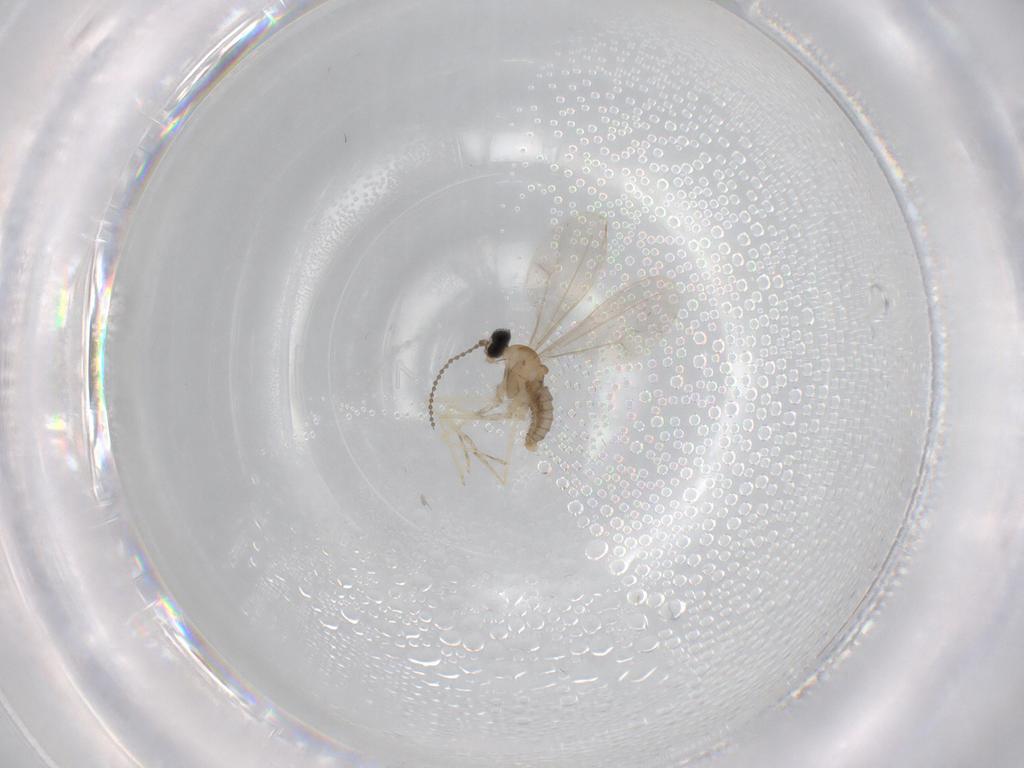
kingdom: Animalia
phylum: Arthropoda
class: Insecta
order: Diptera
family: Cecidomyiidae
